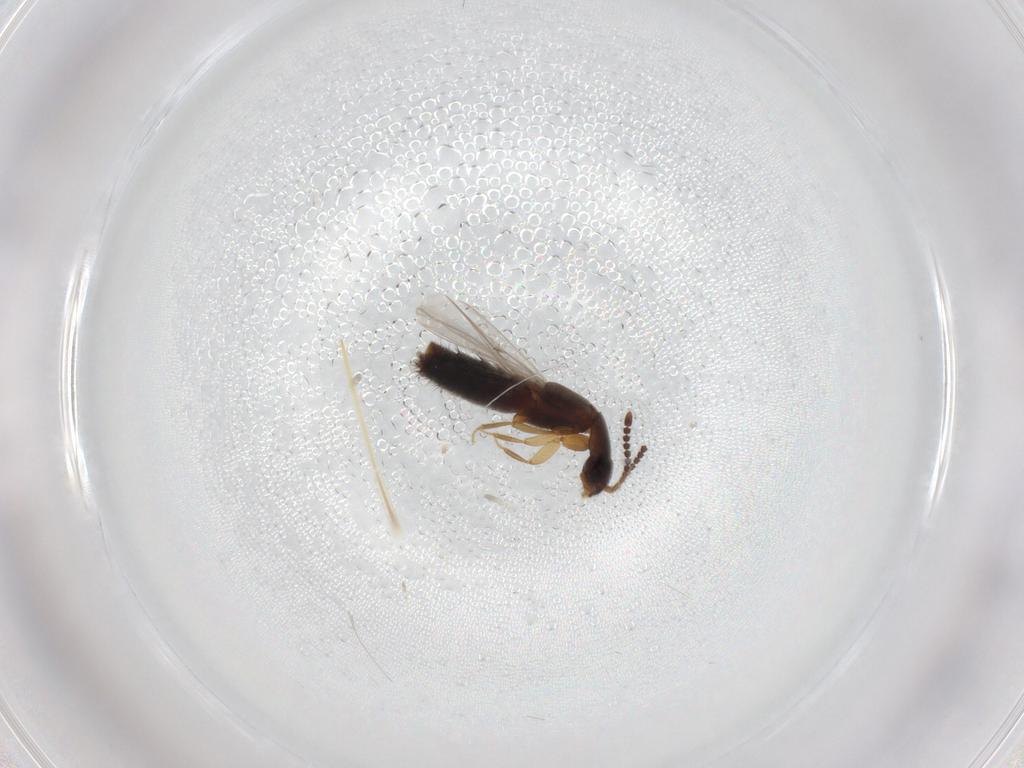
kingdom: Animalia
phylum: Arthropoda
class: Insecta
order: Coleoptera
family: Chrysomelidae
